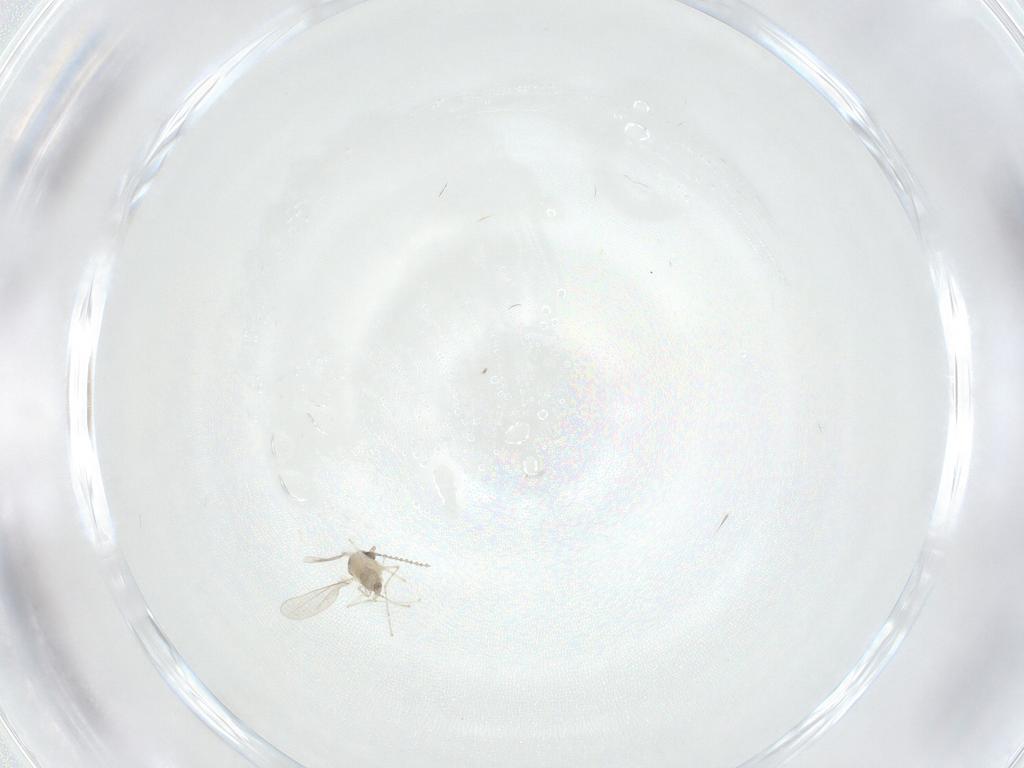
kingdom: Animalia
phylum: Arthropoda
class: Insecta
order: Diptera
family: Cecidomyiidae
